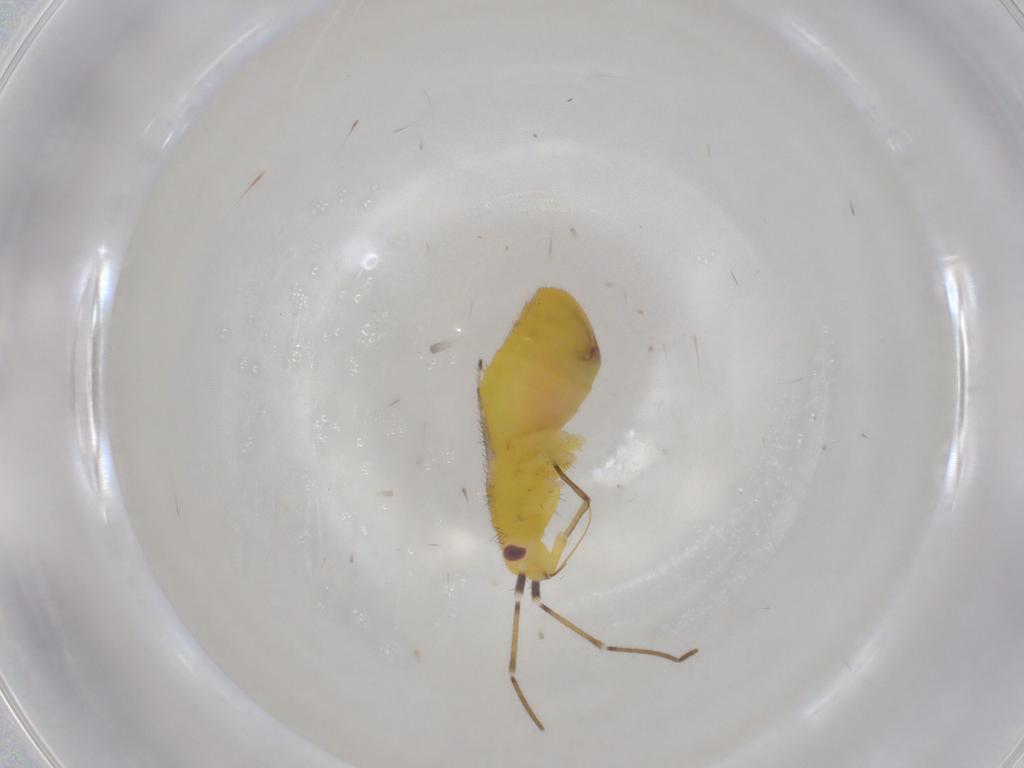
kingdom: Animalia
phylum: Arthropoda
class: Insecta
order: Hemiptera
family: Miridae
